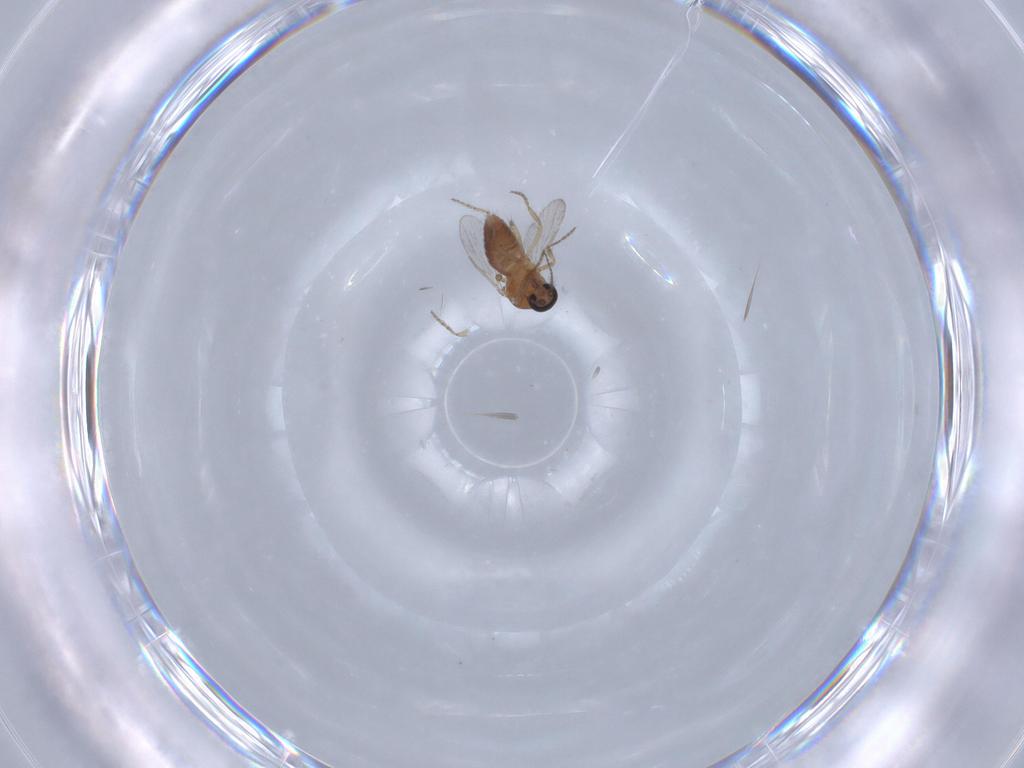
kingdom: Animalia
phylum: Arthropoda
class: Insecta
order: Diptera
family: Ceratopogonidae
